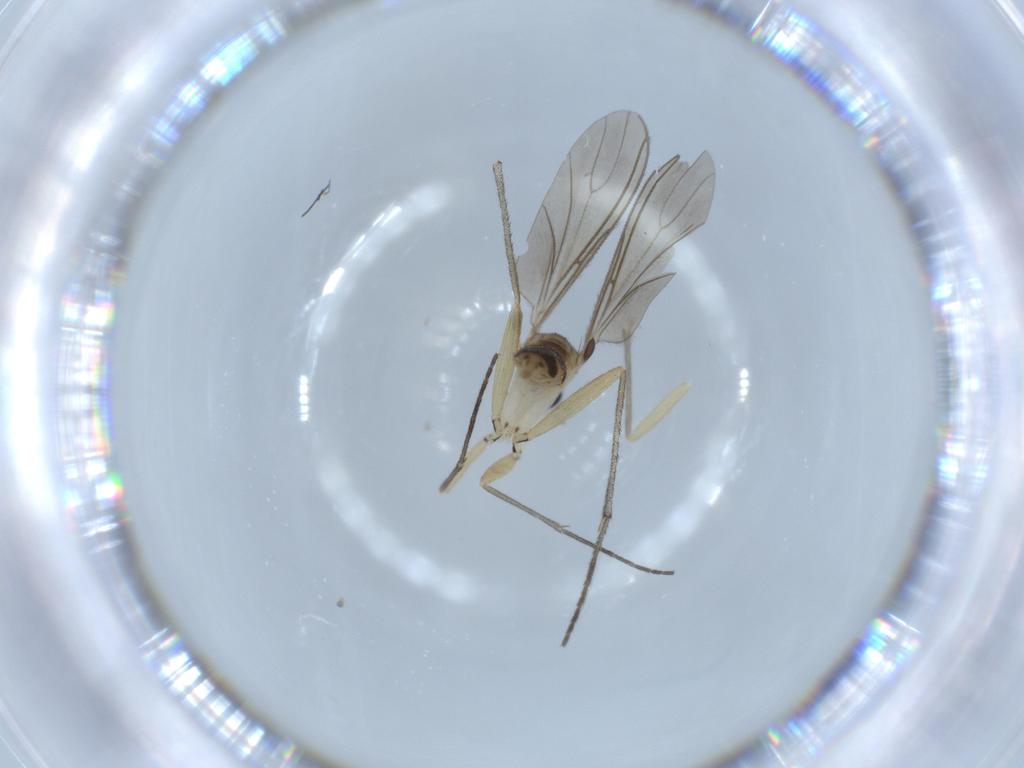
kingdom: Animalia
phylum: Arthropoda
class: Insecta
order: Diptera
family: Sciaridae
